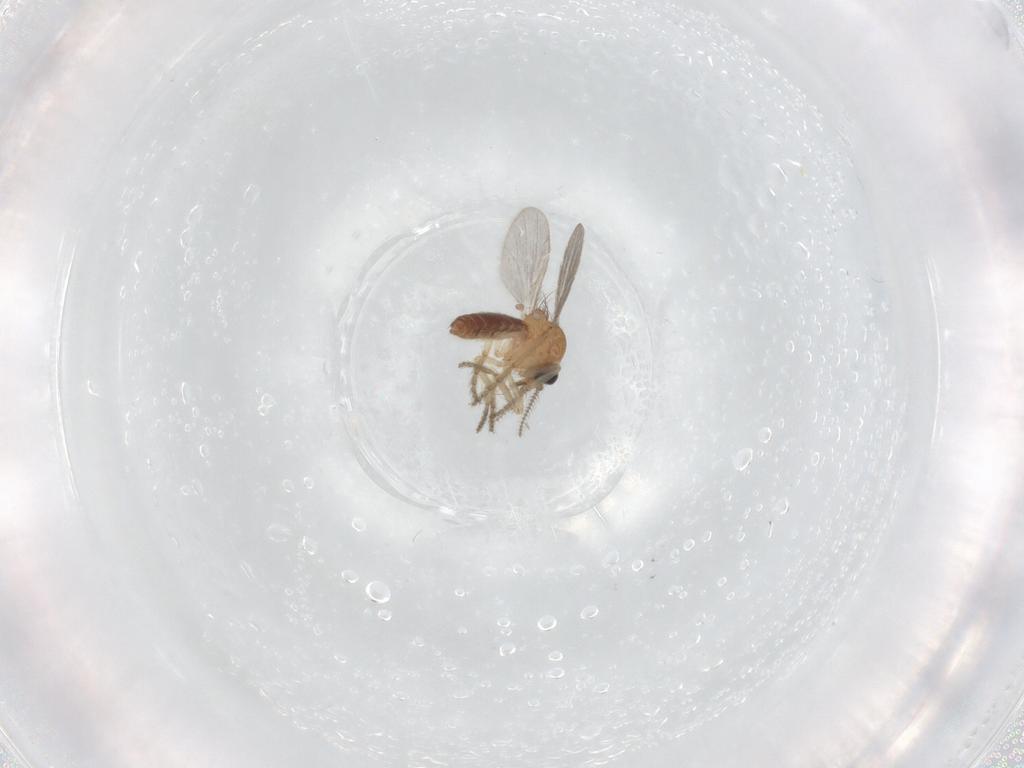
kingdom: Animalia
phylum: Arthropoda
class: Insecta
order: Diptera
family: Ceratopogonidae
